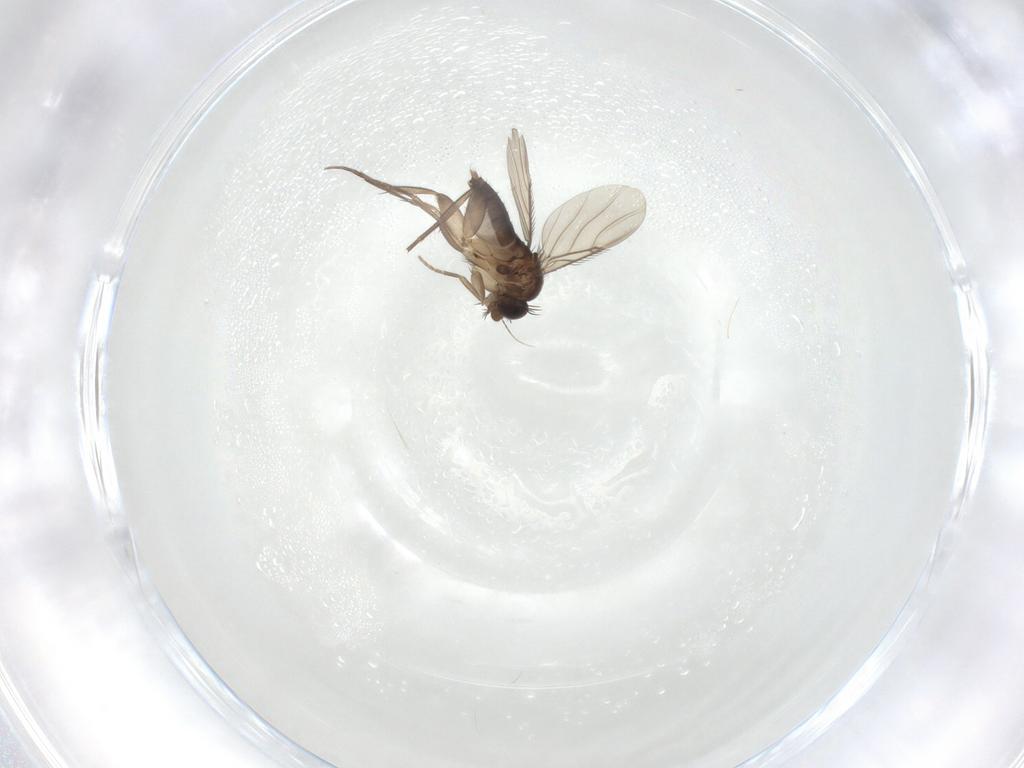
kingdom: Animalia
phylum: Arthropoda
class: Insecta
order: Diptera
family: Phoridae
